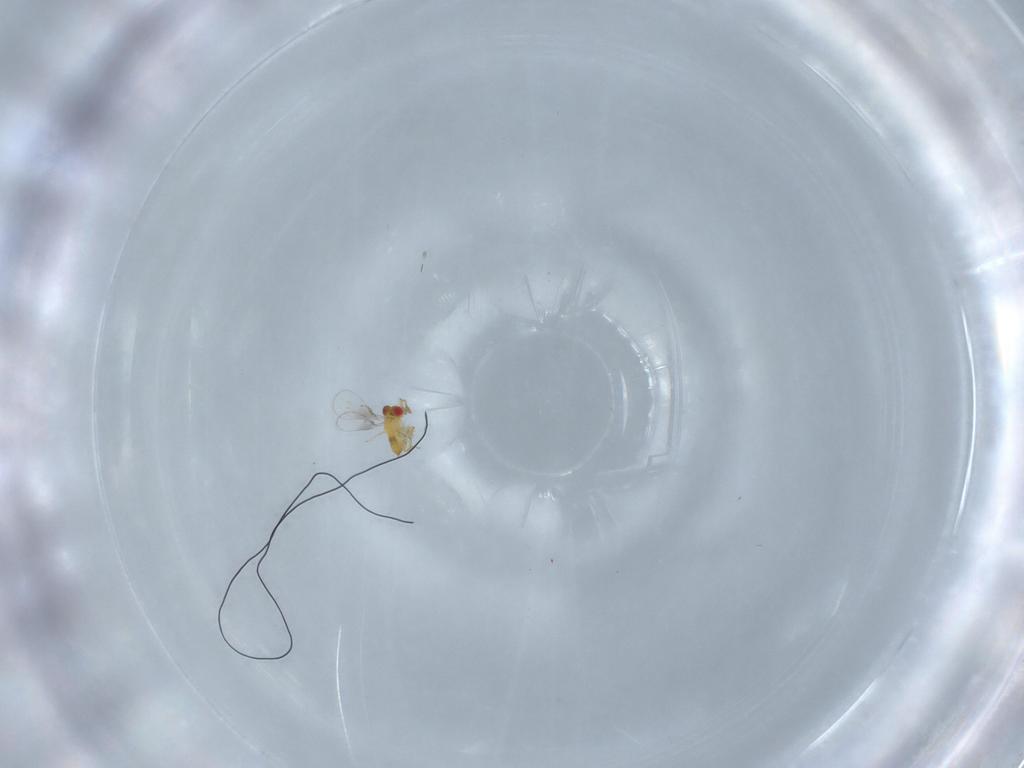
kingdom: Animalia
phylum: Arthropoda
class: Insecta
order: Hymenoptera
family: Trichogrammatidae
